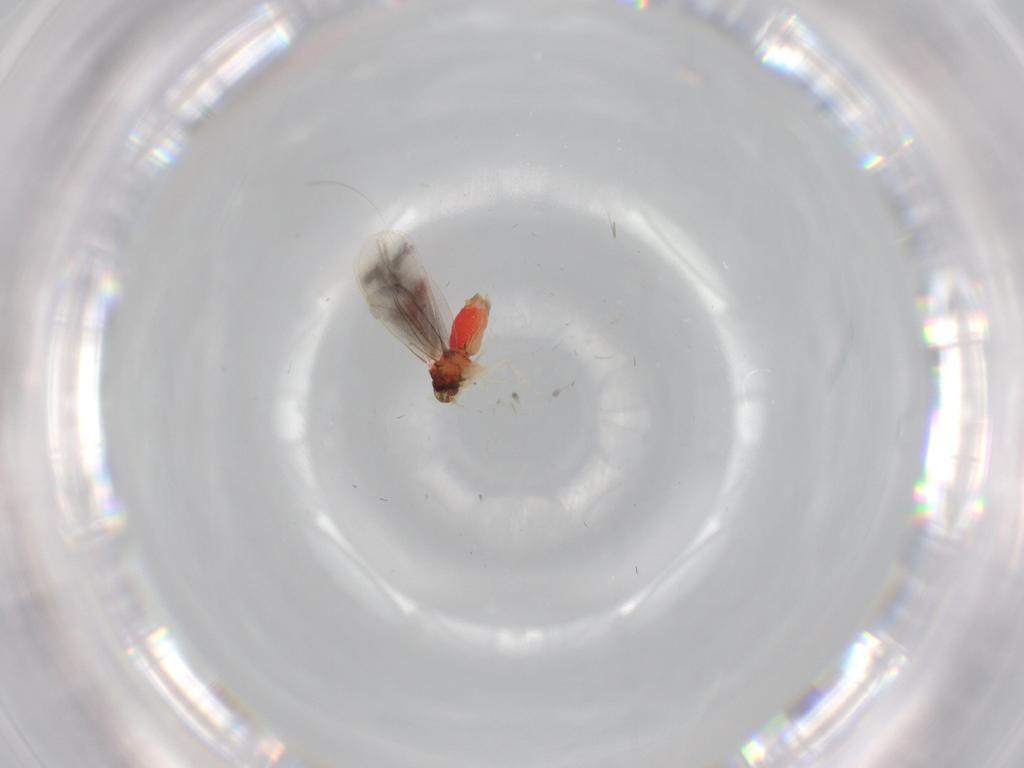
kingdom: Animalia
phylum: Arthropoda
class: Insecta
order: Hemiptera
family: Aleyrodidae
